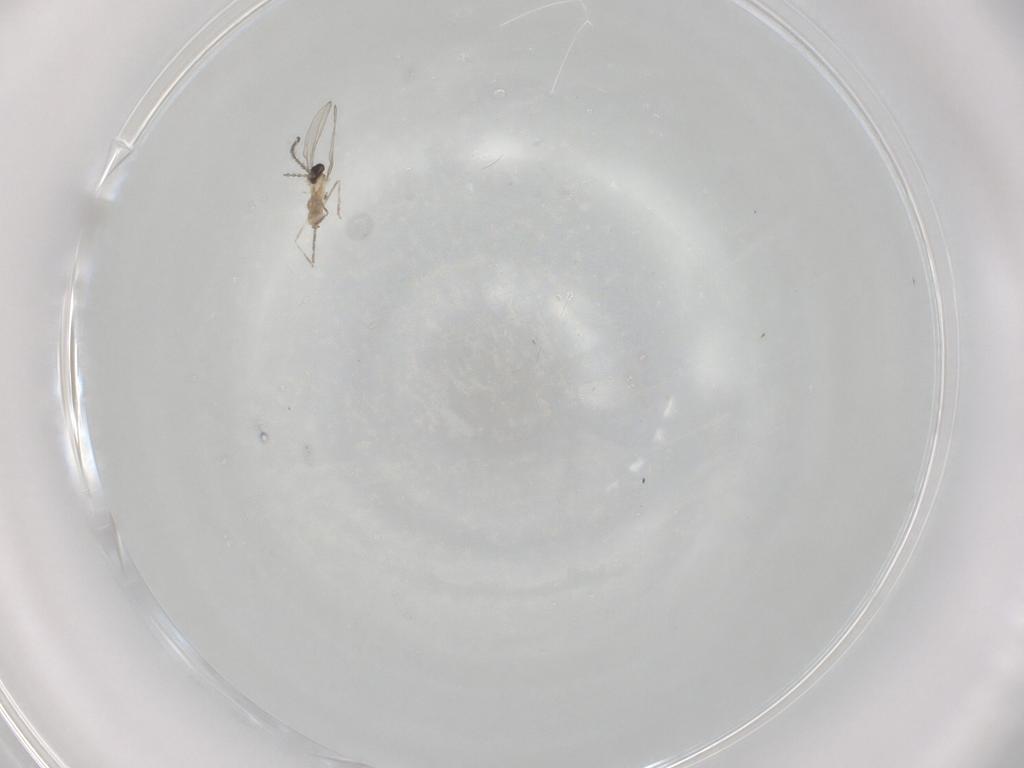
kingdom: Animalia
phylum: Arthropoda
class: Insecta
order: Diptera
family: Cecidomyiidae
